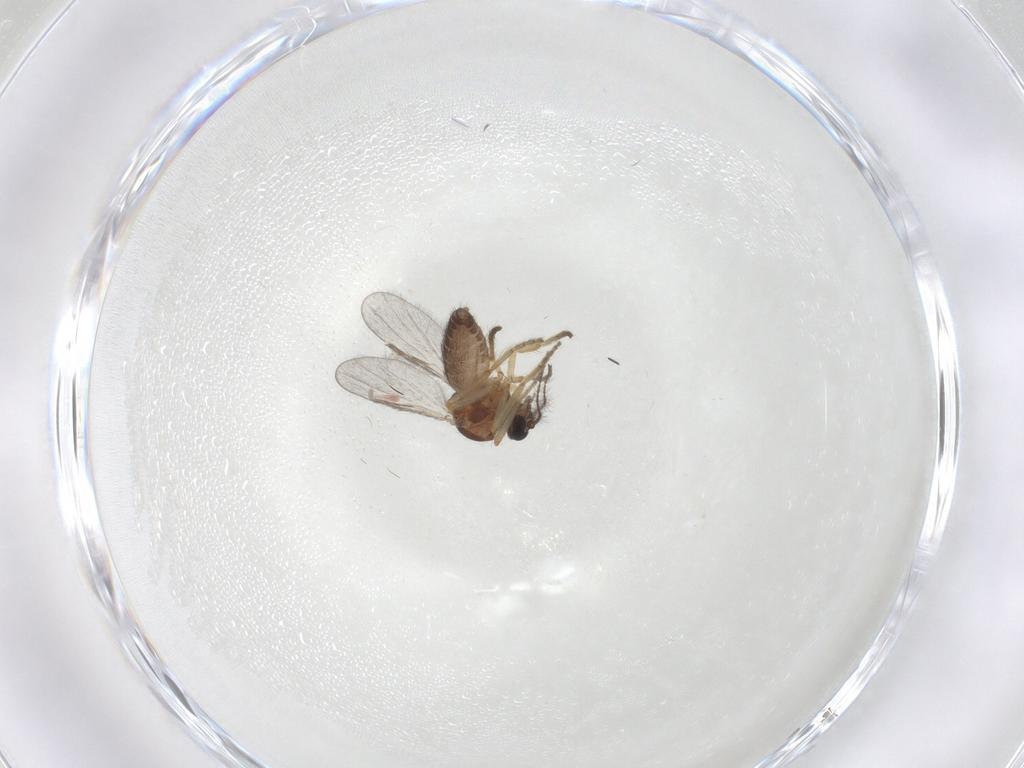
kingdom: Animalia
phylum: Arthropoda
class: Insecta
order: Diptera
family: Ceratopogonidae
